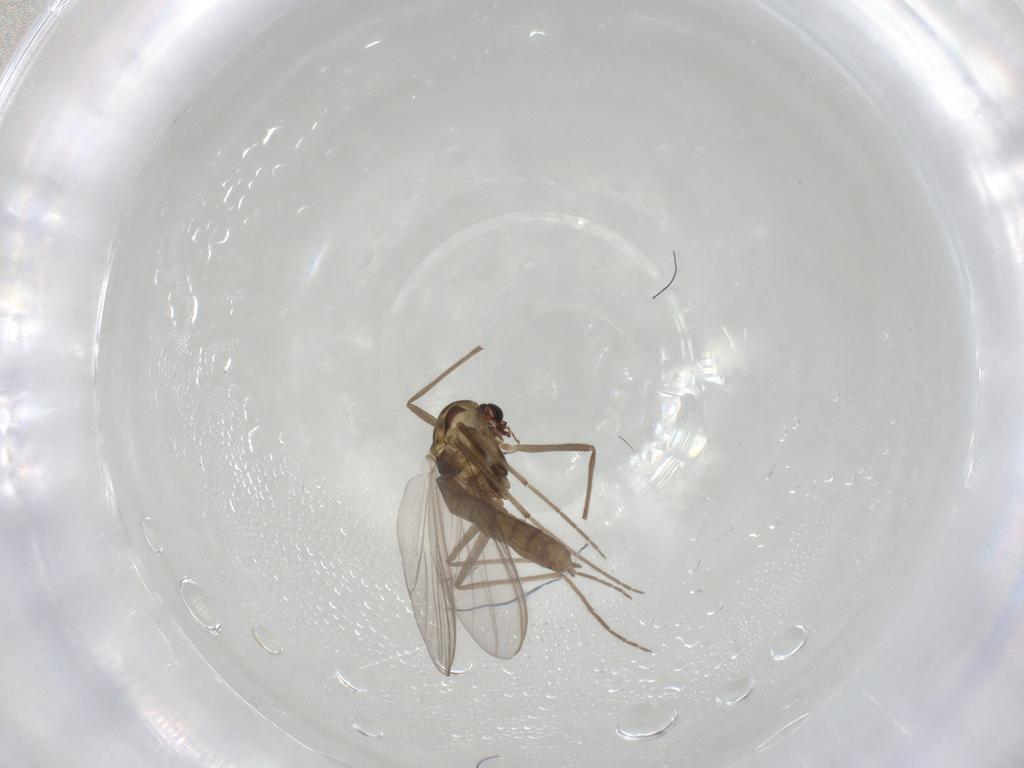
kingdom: Animalia
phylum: Arthropoda
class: Insecta
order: Diptera
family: Chironomidae
